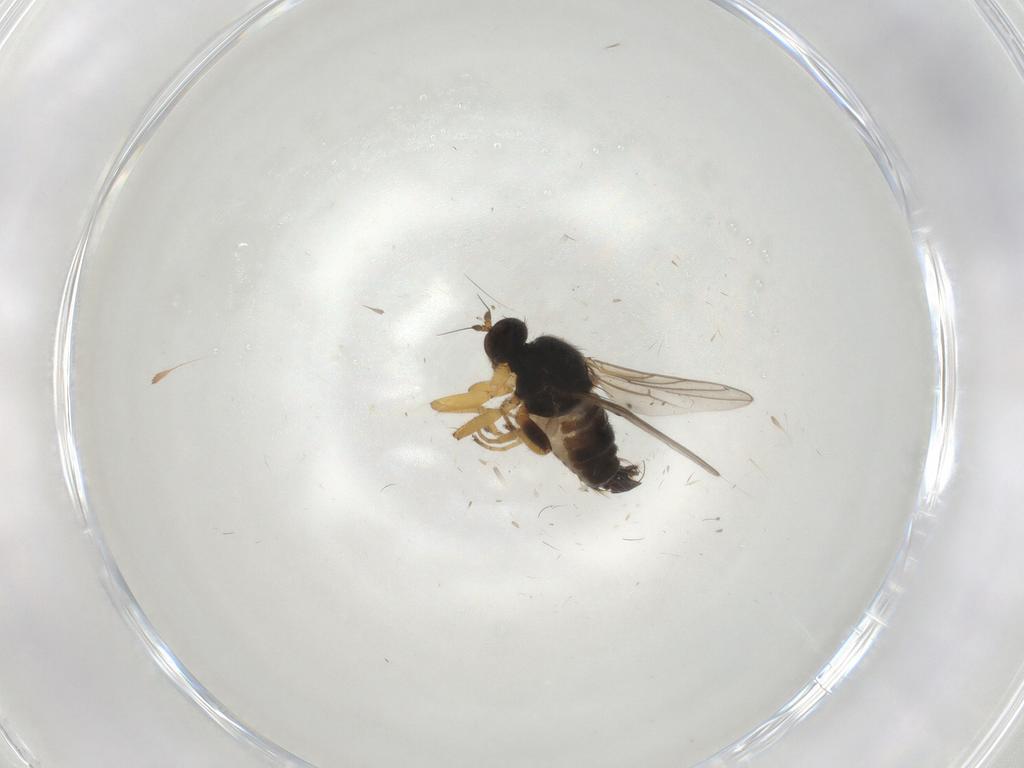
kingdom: Animalia
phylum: Arthropoda
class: Insecta
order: Diptera
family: Hybotidae
